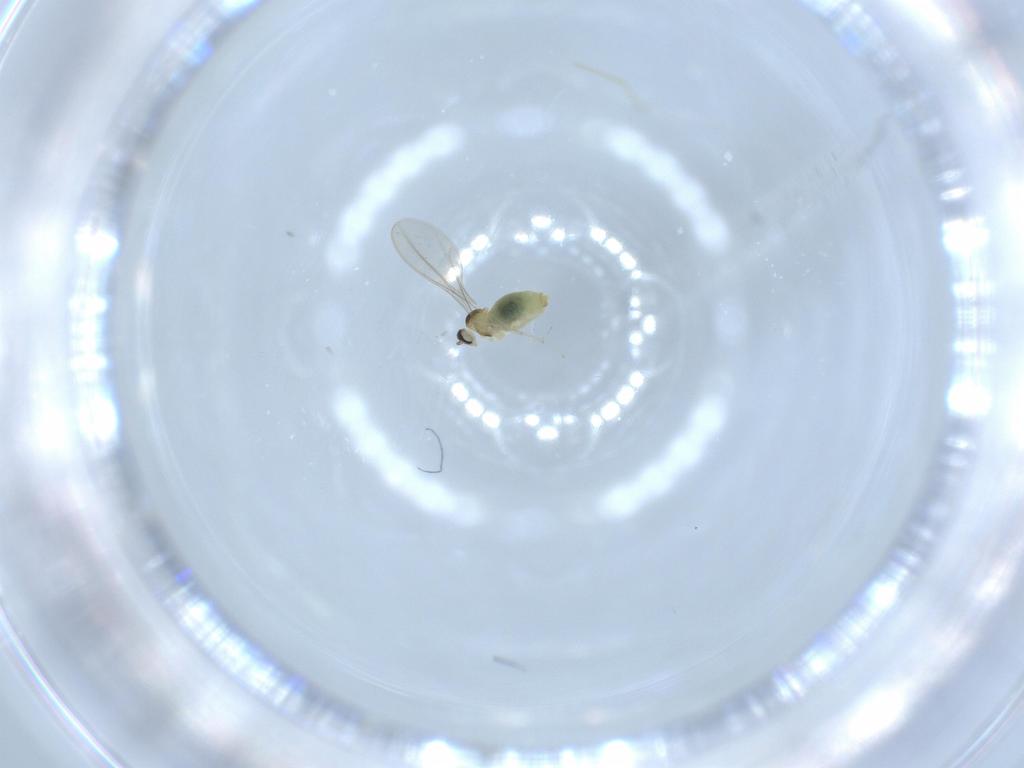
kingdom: Animalia
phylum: Arthropoda
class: Insecta
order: Diptera
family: Cecidomyiidae
